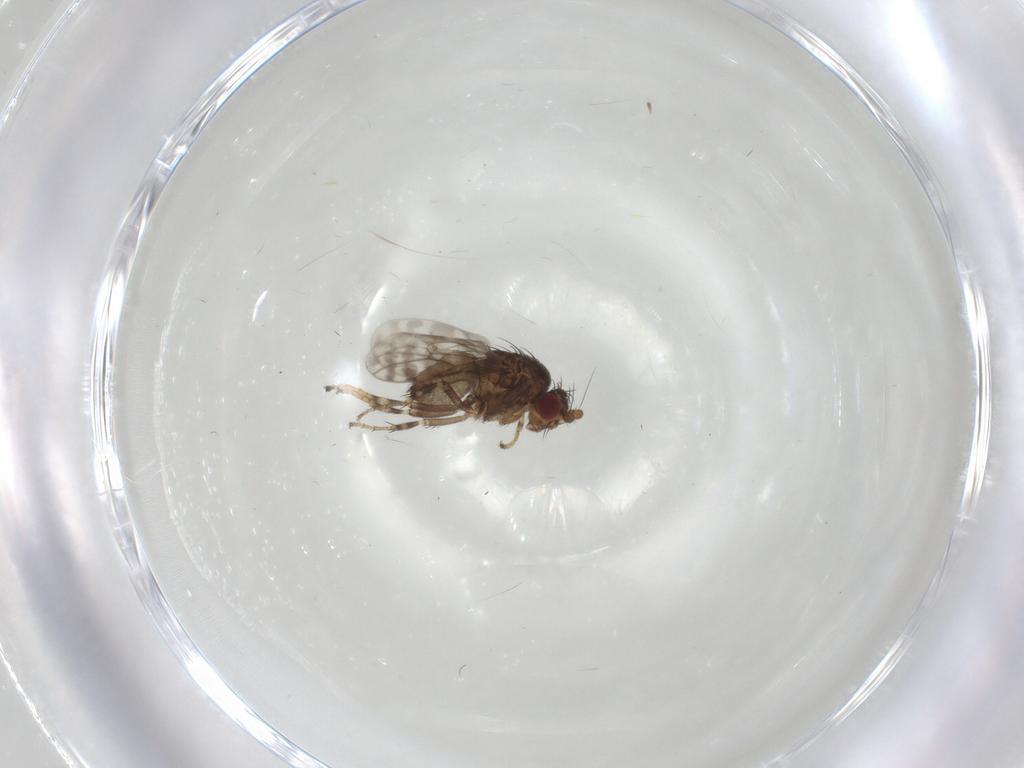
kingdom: Animalia
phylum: Arthropoda
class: Insecta
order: Diptera
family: Sphaeroceridae
